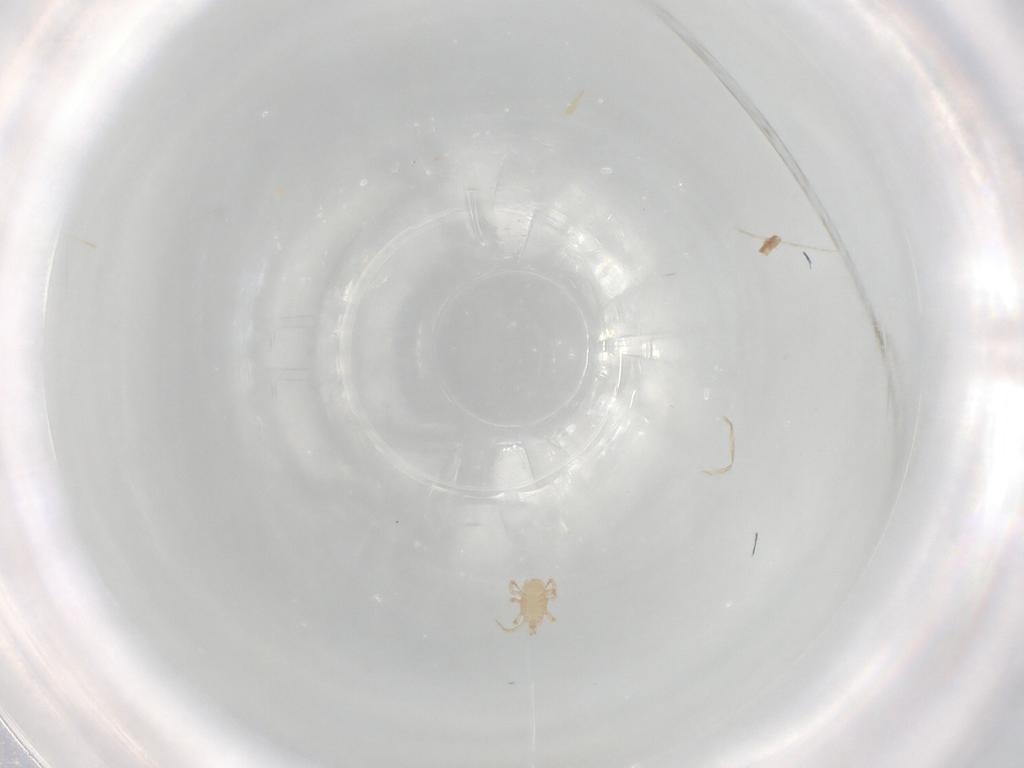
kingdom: Animalia
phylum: Arthropoda
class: Arachnida
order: Mesostigmata
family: Macrochelidae
